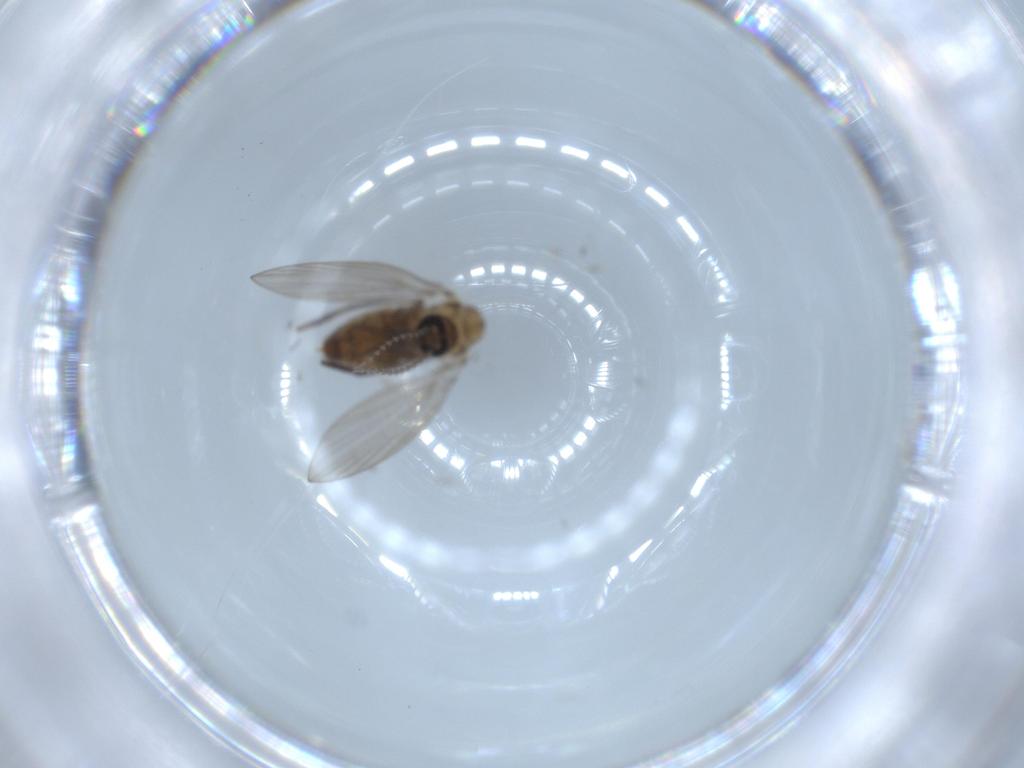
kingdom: Animalia
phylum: Arthropoda
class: Insecta
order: Diptera
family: Psychodidae
